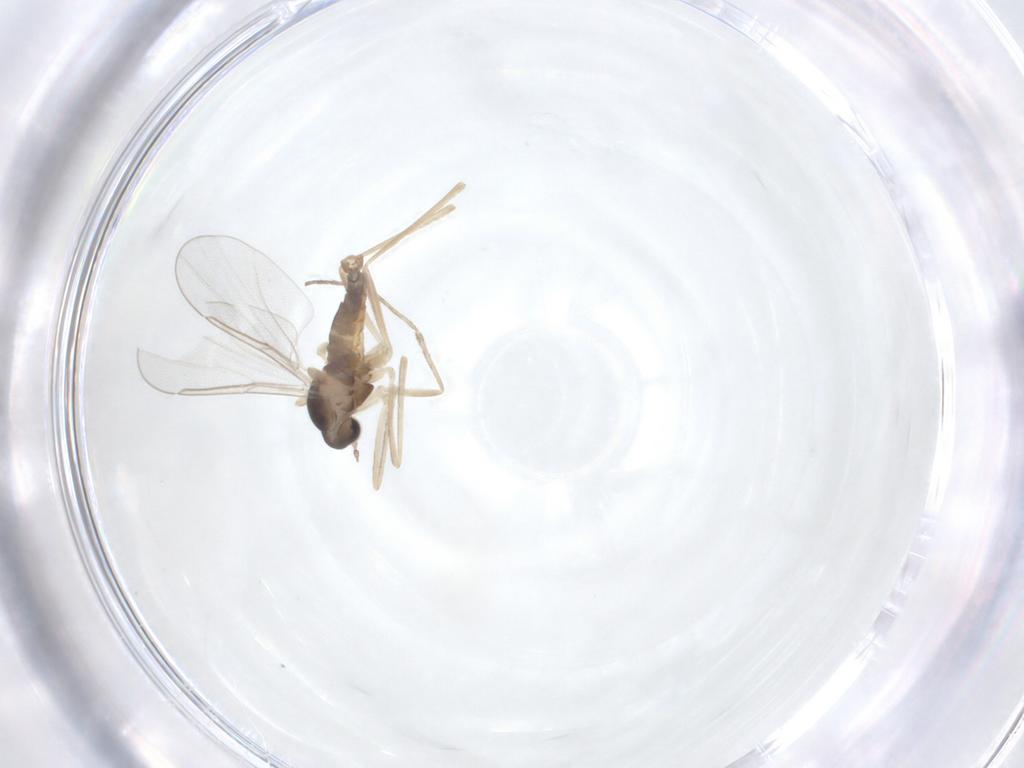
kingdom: Animalia
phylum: Arthropoda
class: Insecta
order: Diptera
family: Cecidomyiidae
